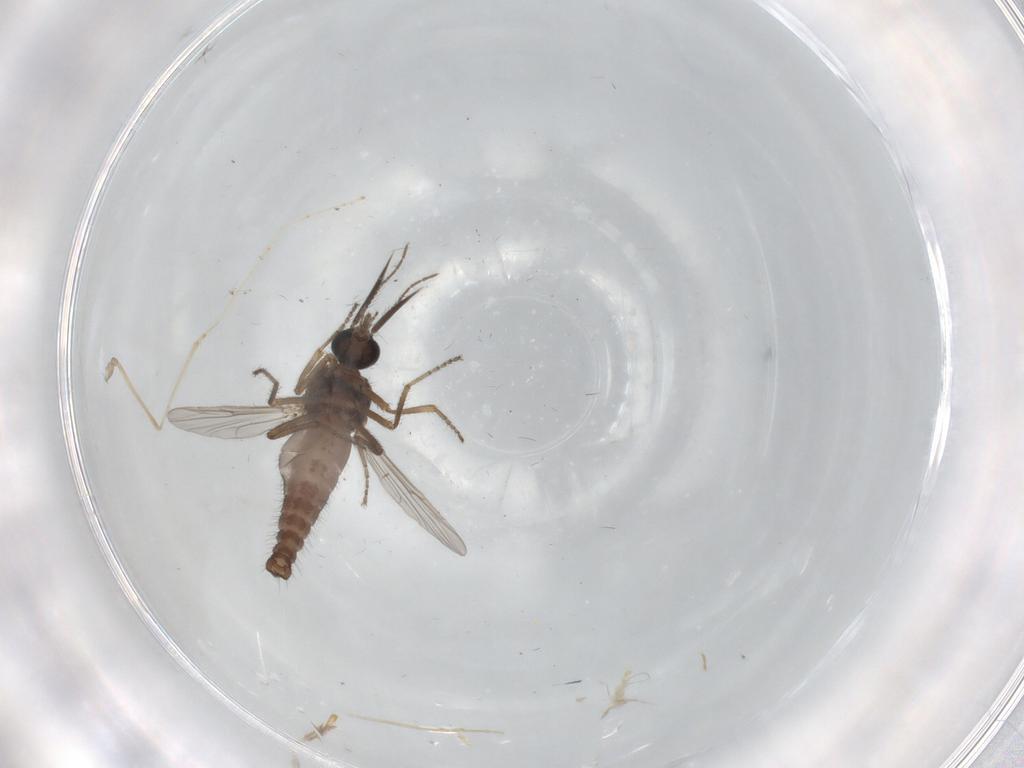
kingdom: Animalia
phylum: Arthropoda
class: Insecta
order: Diptera
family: Ceratopogonidae
